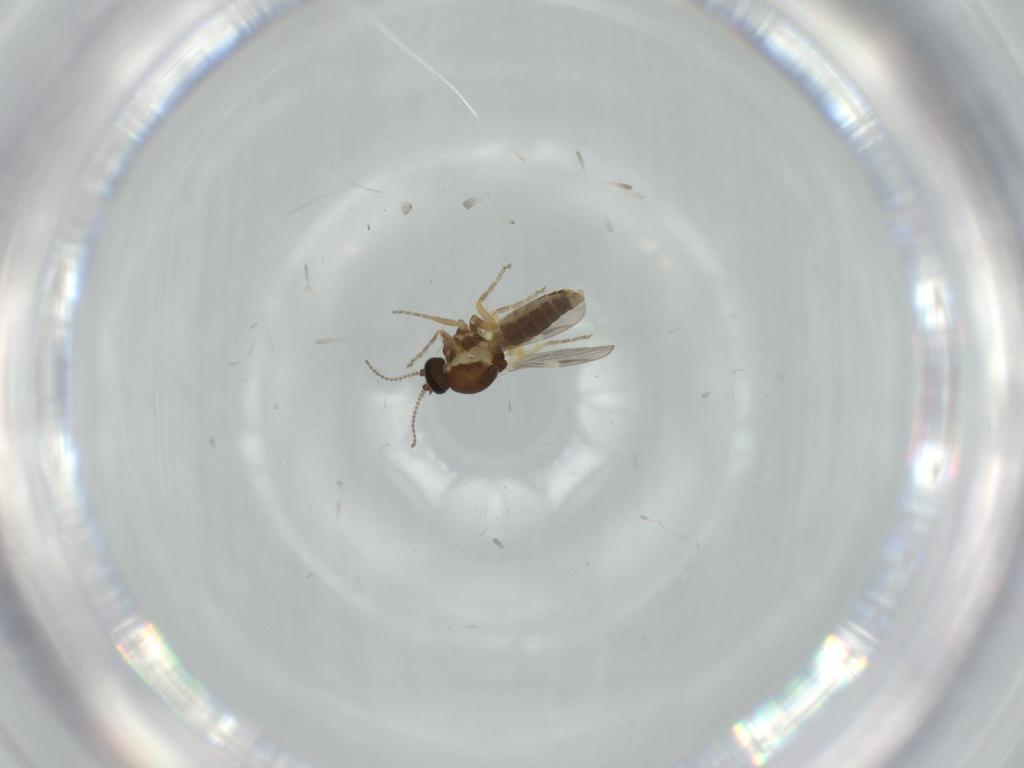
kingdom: Animalia
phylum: Arthropoda
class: Insecta
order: Diptera
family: Ceratopogonidae
